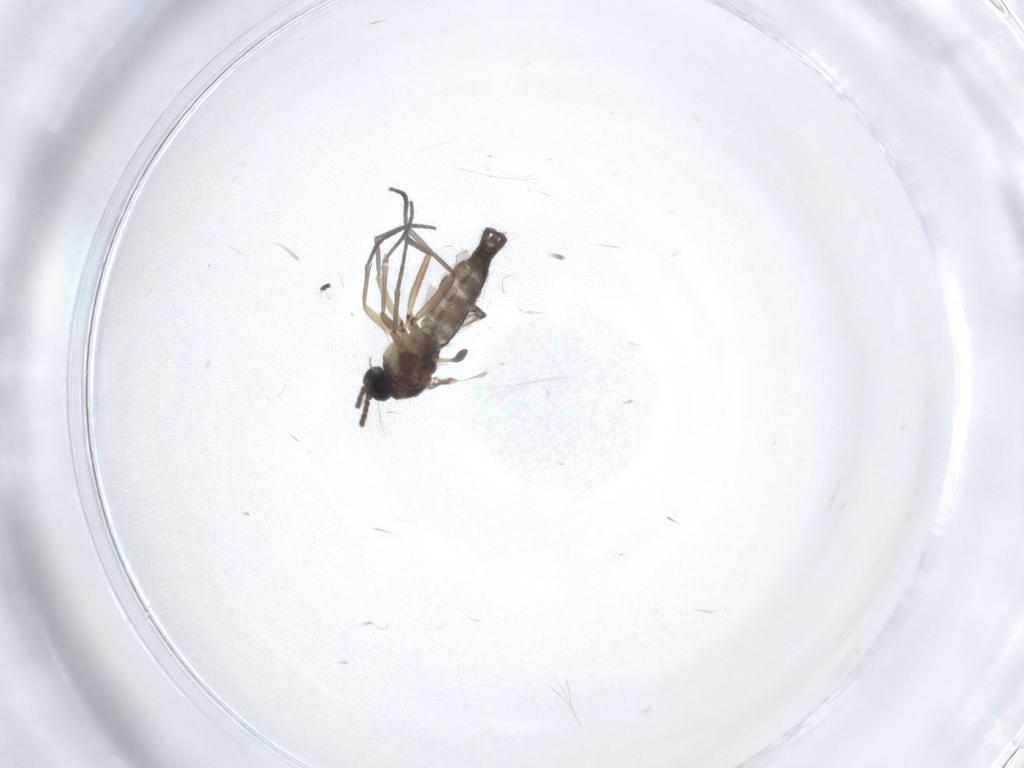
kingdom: Animalia
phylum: Arthropoda
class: Insecta
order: Diptera
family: Sciaridae
